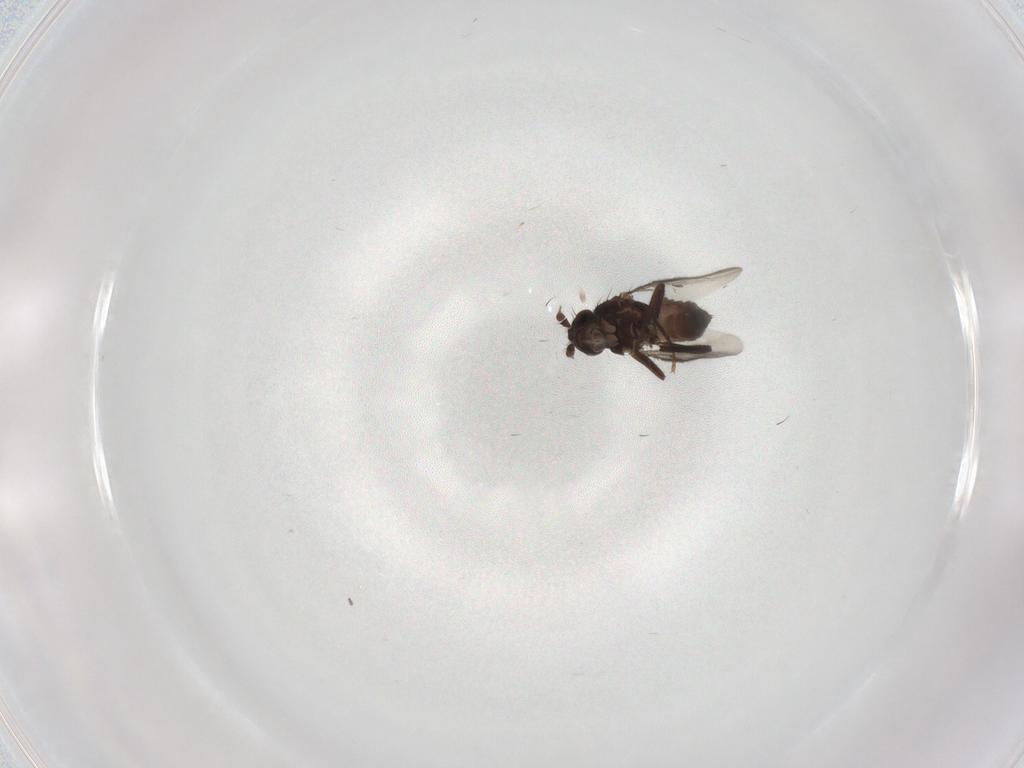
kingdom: Animalia
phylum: Arthropoda
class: Insecta
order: Diptera
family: Sphaeroceridae
